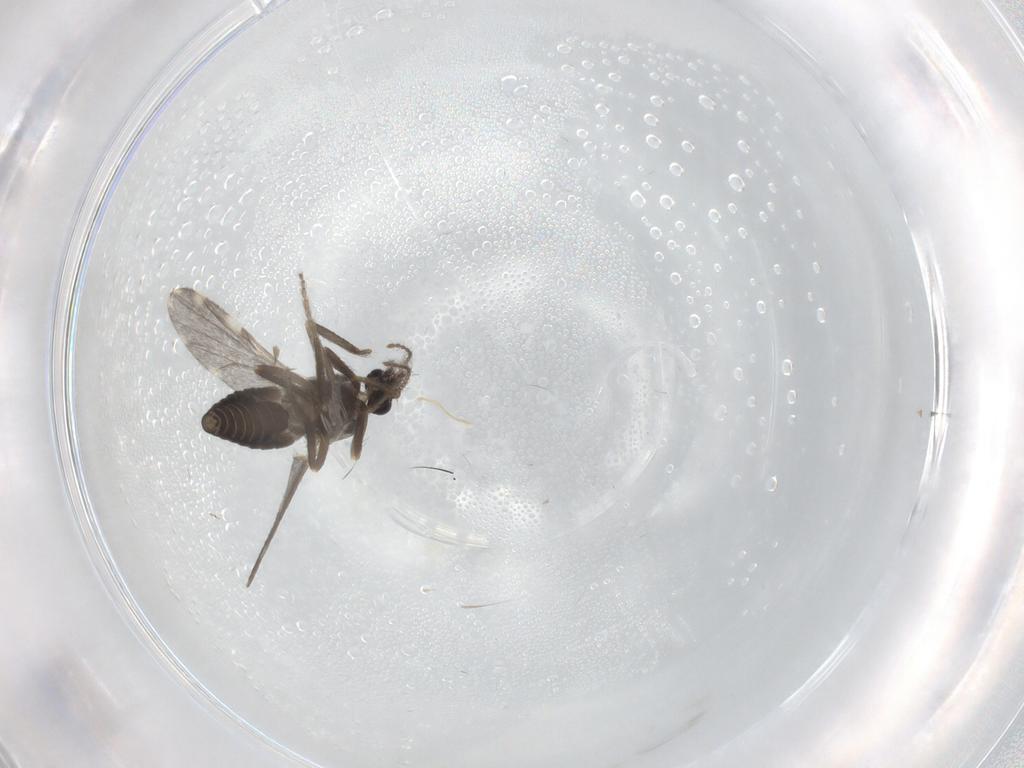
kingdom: Animalia
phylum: Arthropoda
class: Insecta
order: Diptera
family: Ceratopogonidae
